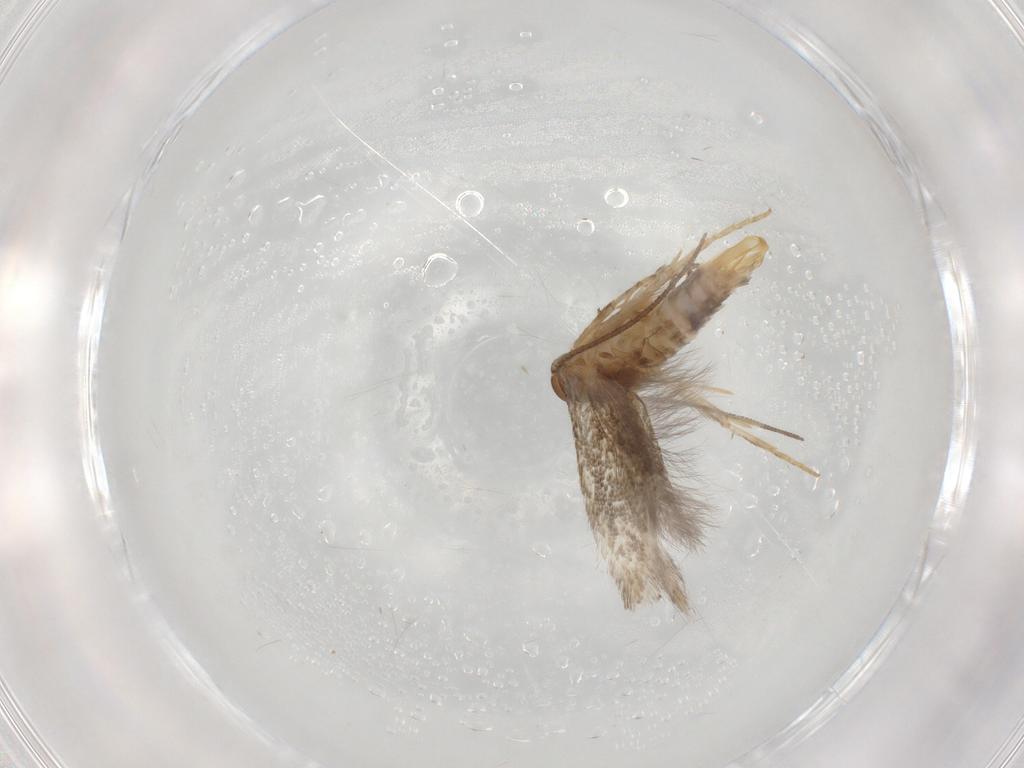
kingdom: Animalia
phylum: Arthropoda
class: Insecta
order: Lepidoptera
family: Elachistidae
